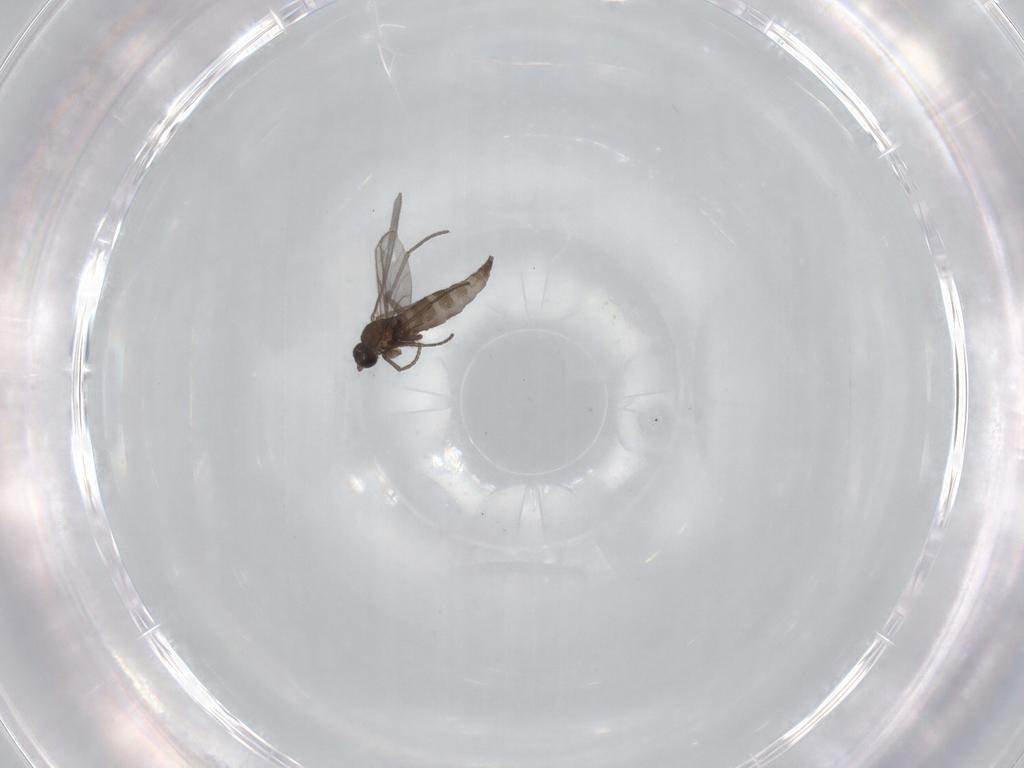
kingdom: Animalia
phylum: Arthropoda
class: Insecta
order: Diptera
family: Sciaridae
